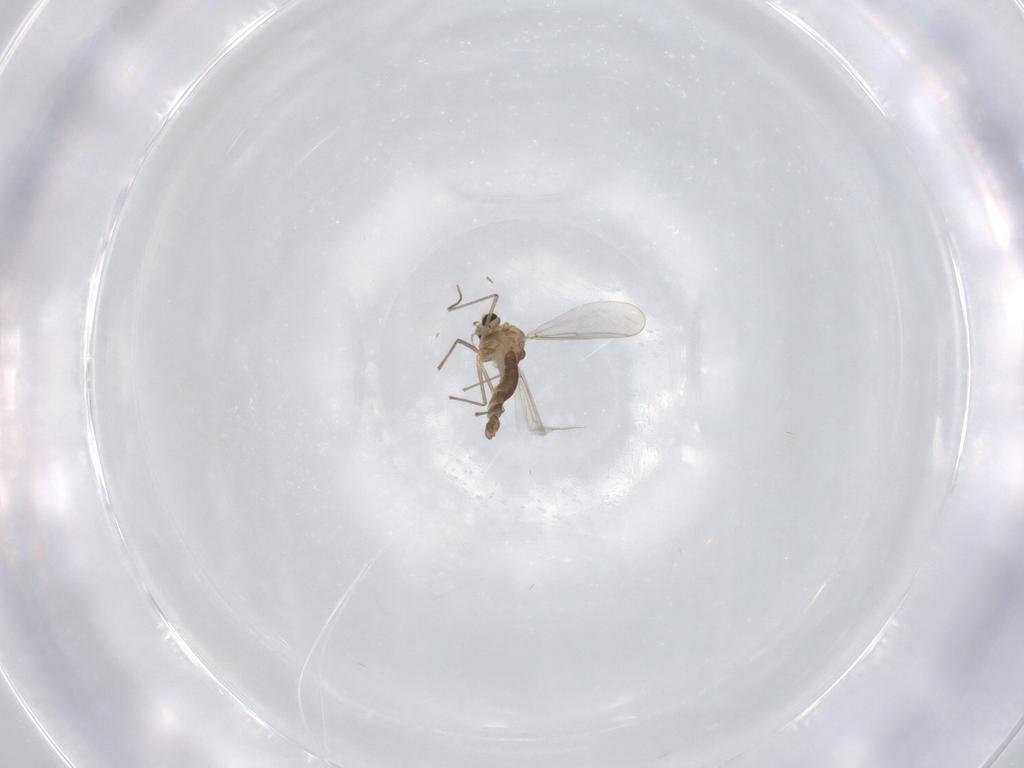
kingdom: Animalia
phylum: Arthropoda
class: Insecta
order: Diptera
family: Chironomidae
